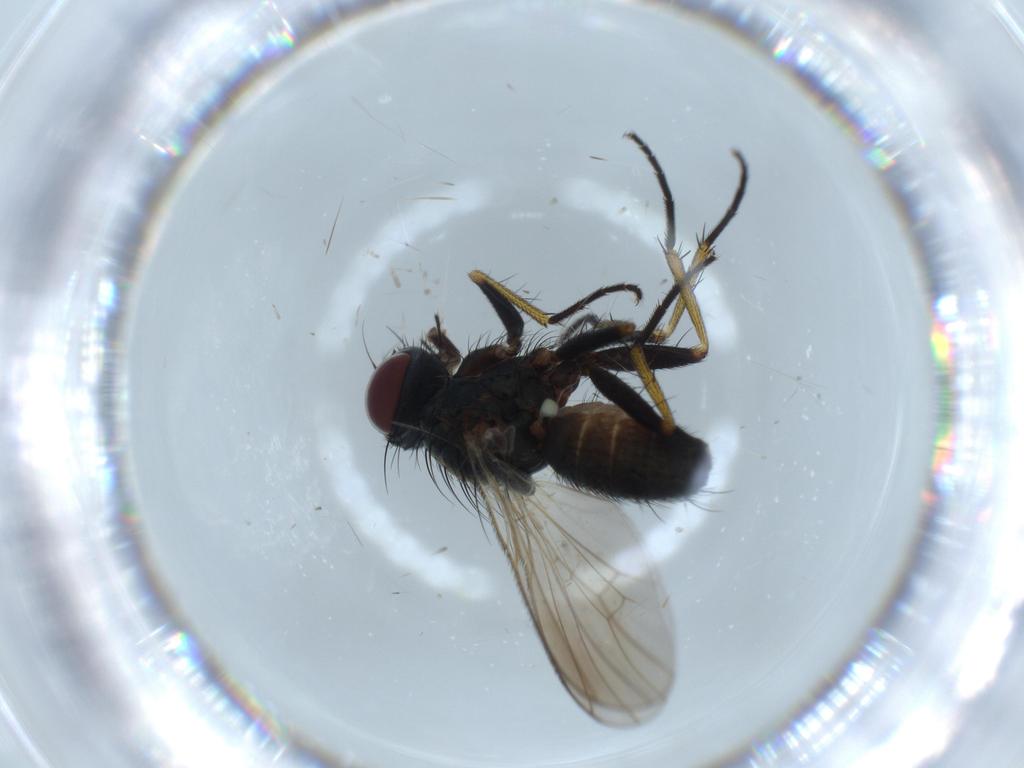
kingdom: Animalia
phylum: Arthropoda
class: Insecta
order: Diptera
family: Muscidae
